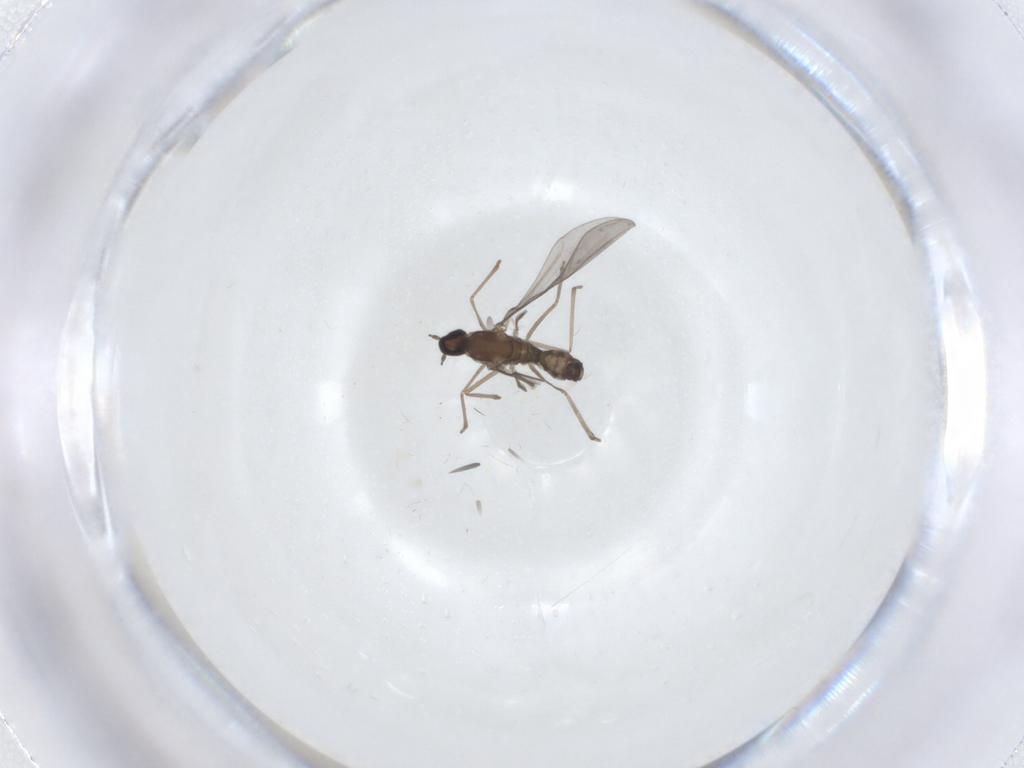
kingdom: Animalia
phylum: Arthropoda
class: Insecta
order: Diptera
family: Cecidomyiidae
